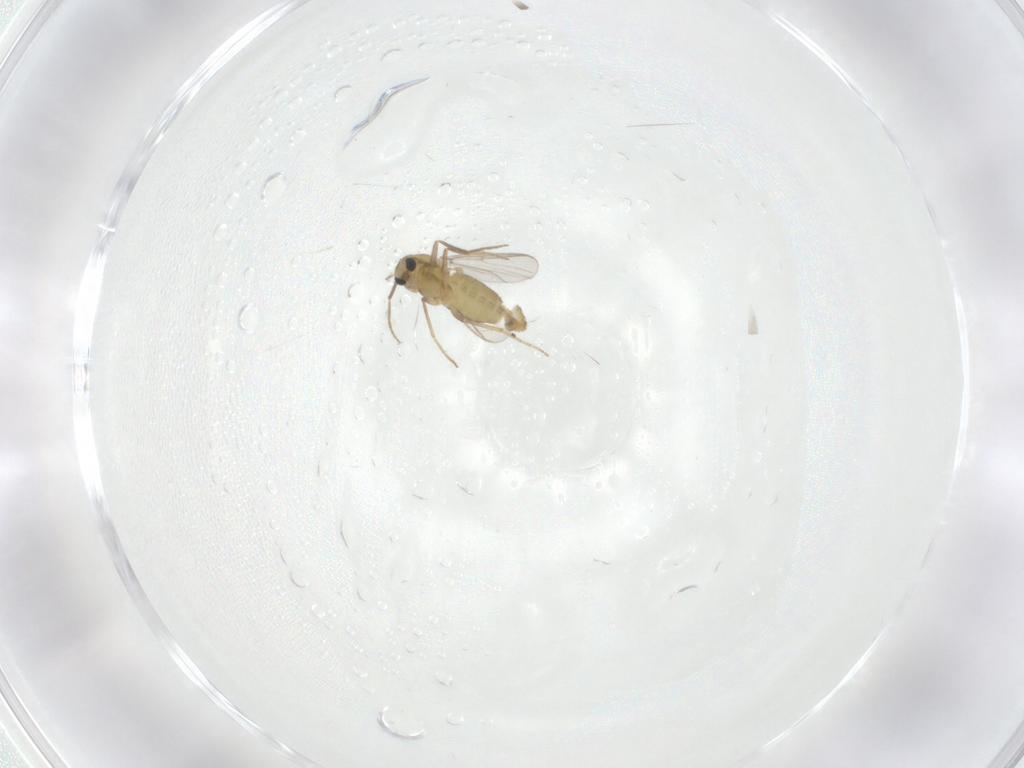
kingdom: Animalia
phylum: Arthropoda
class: Insecta
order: Diptera
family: Chironomidae
